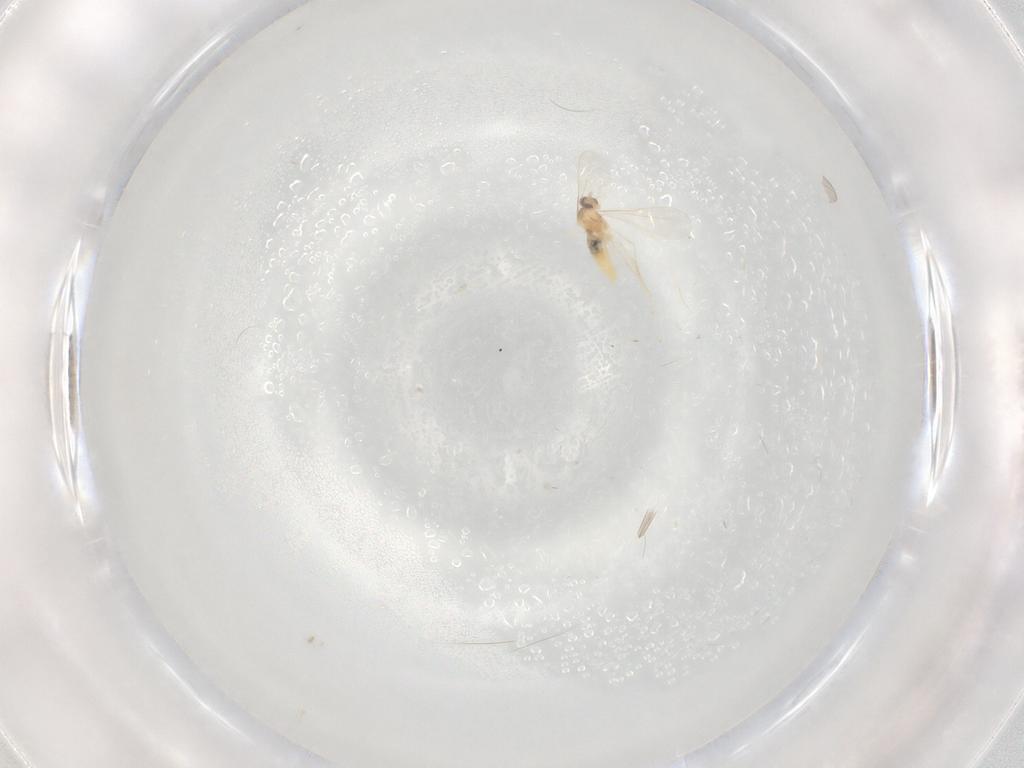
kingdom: Animalia
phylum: Arthropoda
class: Insecta
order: Diptera
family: Cecidomyiidae
